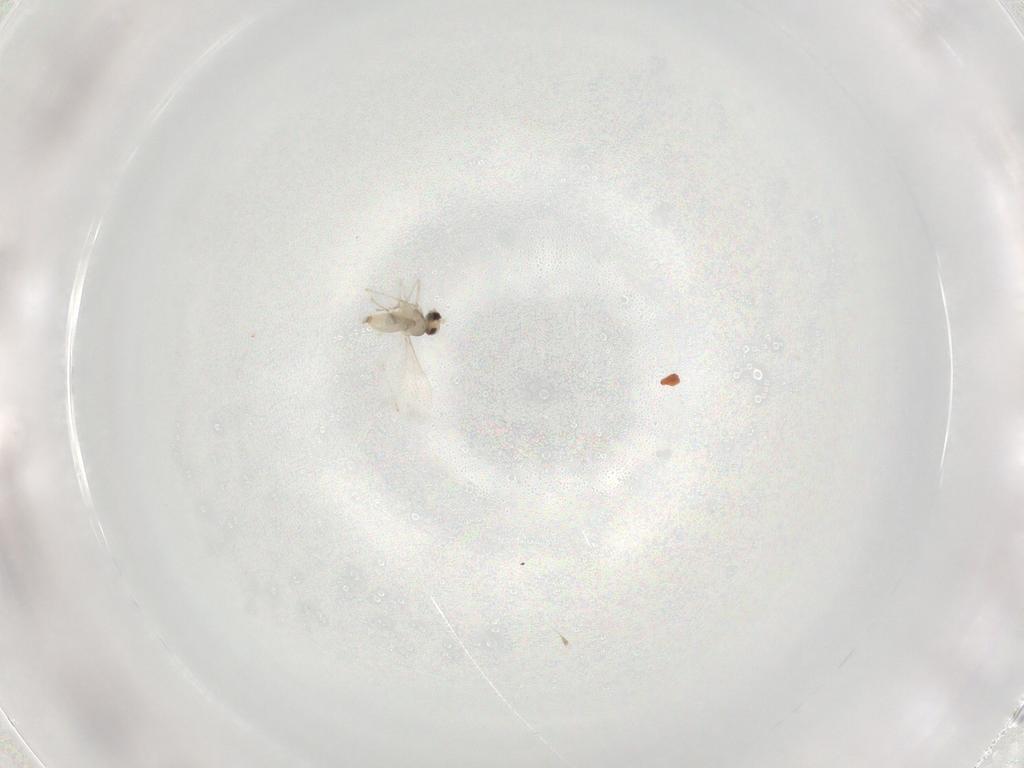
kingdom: Animalia
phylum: Arthropoda
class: Insecta
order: Diptera
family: Cecidomyiidae
